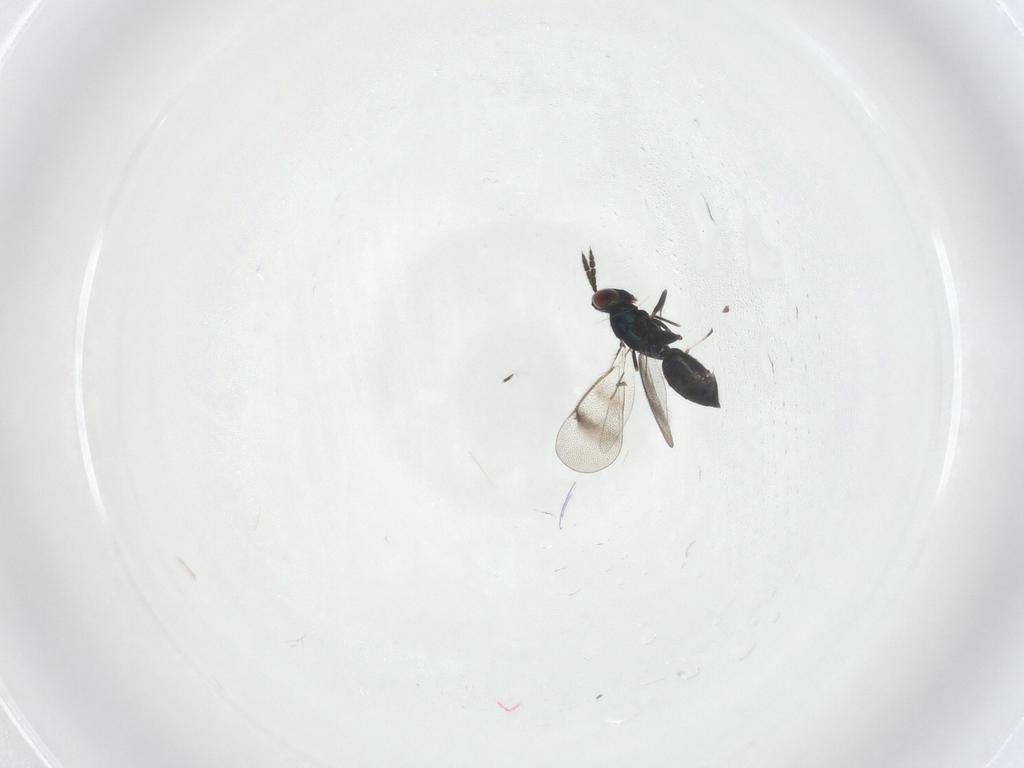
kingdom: Animalia
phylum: Arthropoda
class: Insecta
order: Hymenoptera
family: Eulophidae
